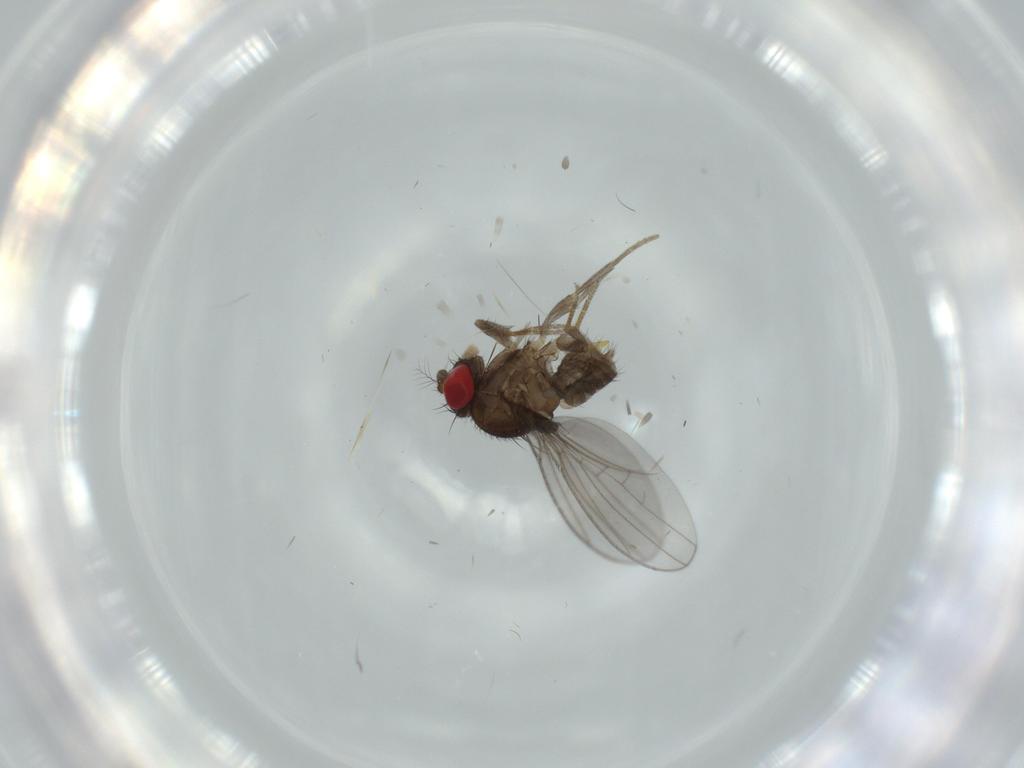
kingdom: Animalia
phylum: Arthropoda
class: Insecta
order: Diptera
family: Drosophilidae
